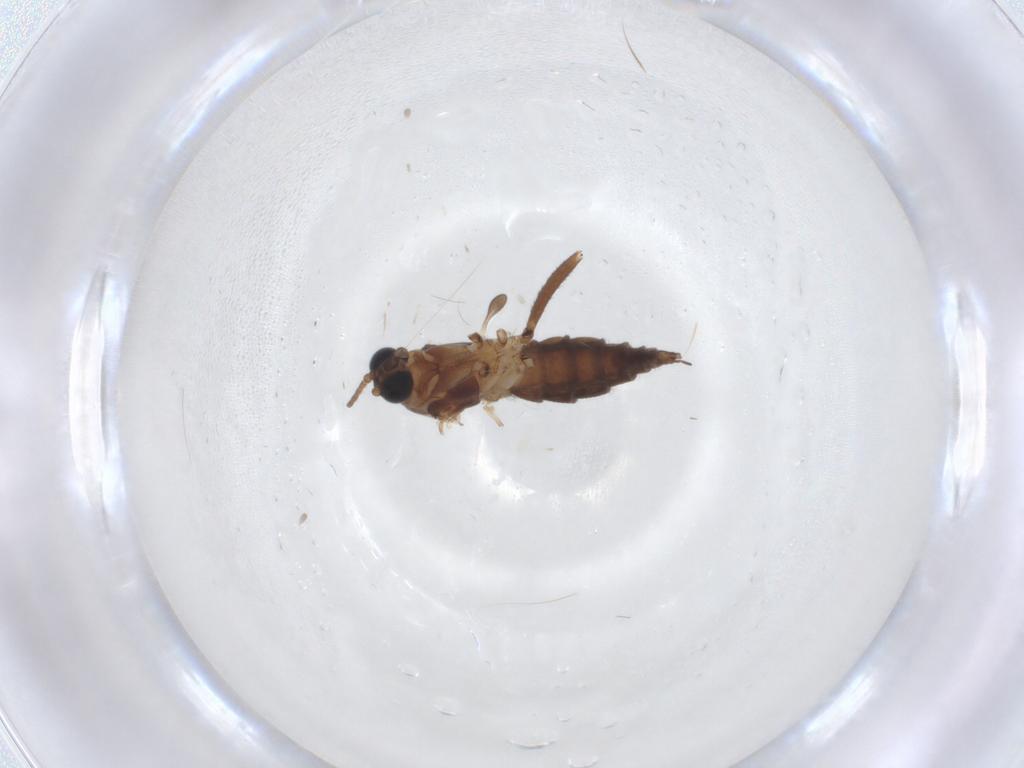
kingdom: Animalia
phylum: Arthropoda
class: Insecta
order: Diptera
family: Sciaridae
